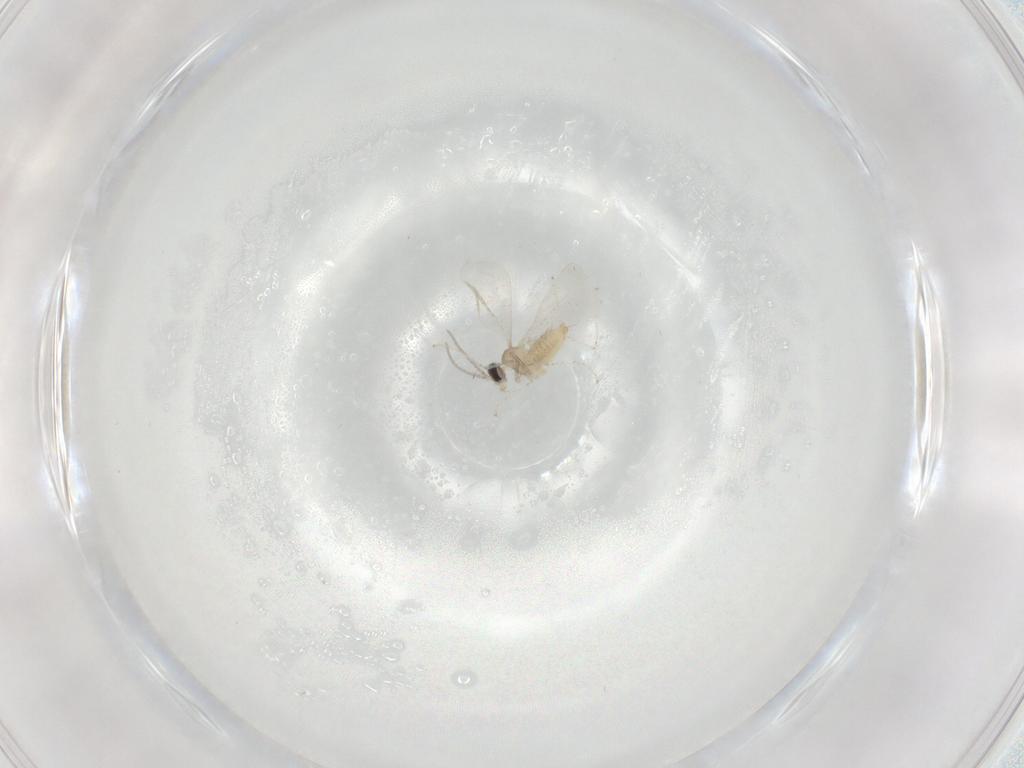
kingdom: Animalia
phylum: Arthropoda
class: Insecta
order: Diptera
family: Cecidomyiidae
